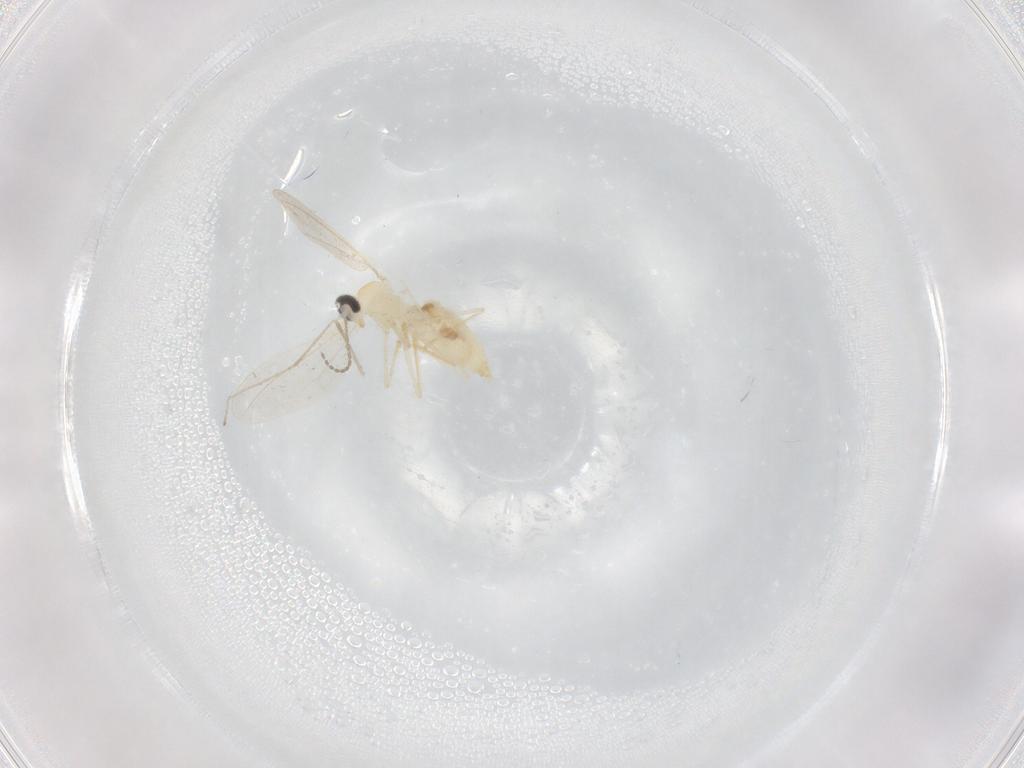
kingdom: Animalia
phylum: Arthropoda
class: Insecta
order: Diptera
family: Cecidomyiidae
